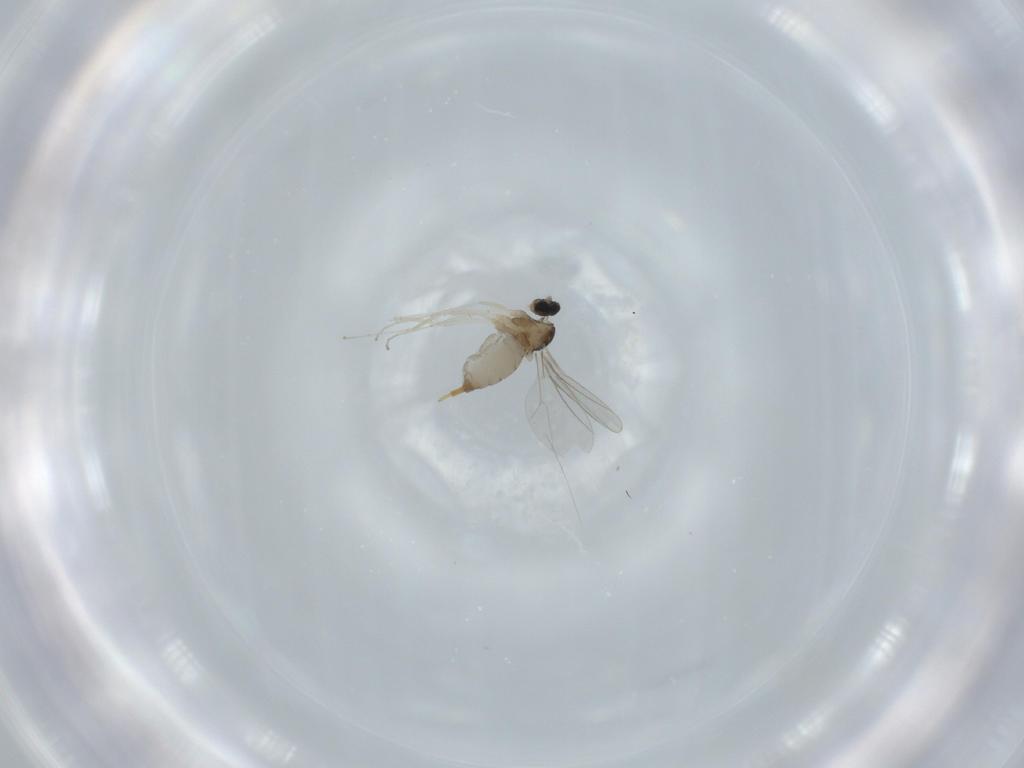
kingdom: Animalia
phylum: Arthropoda
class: Insecta
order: Diptera
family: Cecidomyiidae
